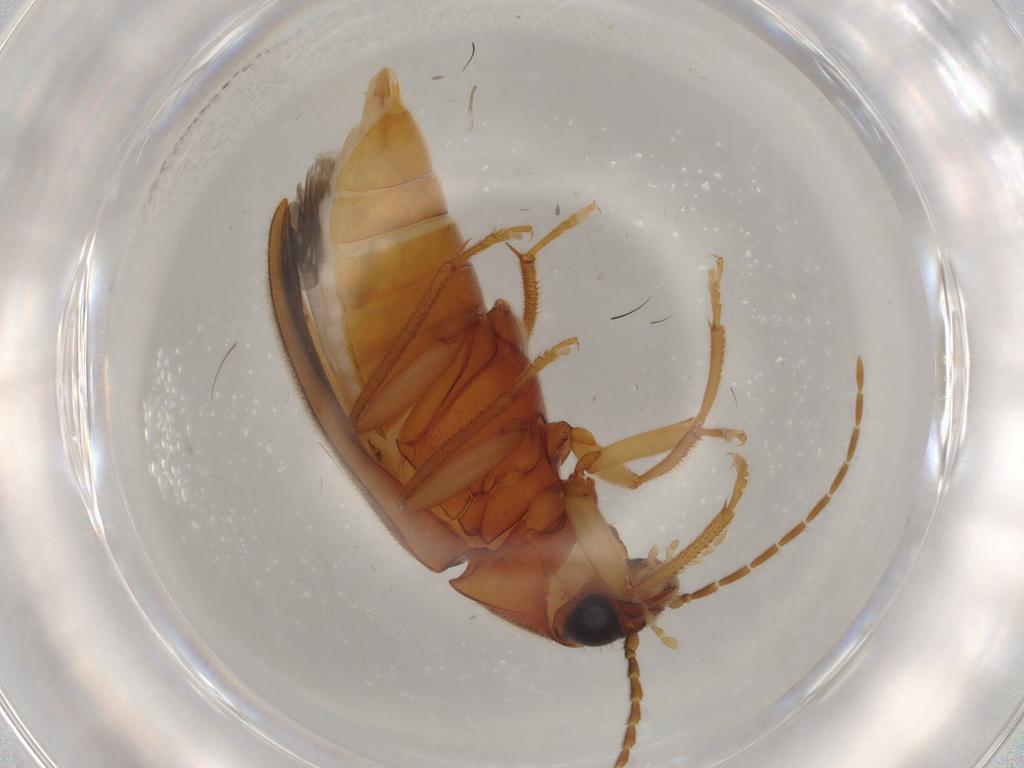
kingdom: Animalia
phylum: Arthropoda
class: Insecta
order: Coleoptera
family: Ptilodactylidae
